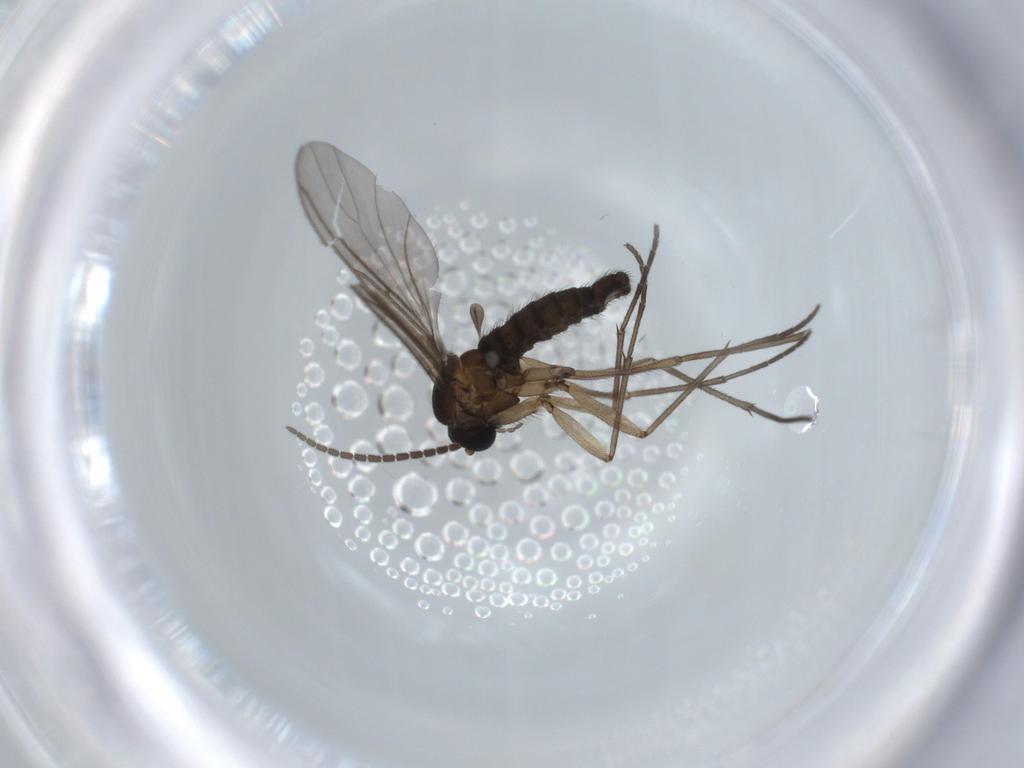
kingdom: Animalia
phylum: Arthropoda
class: Insecta
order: Diptera
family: Sciaridae
